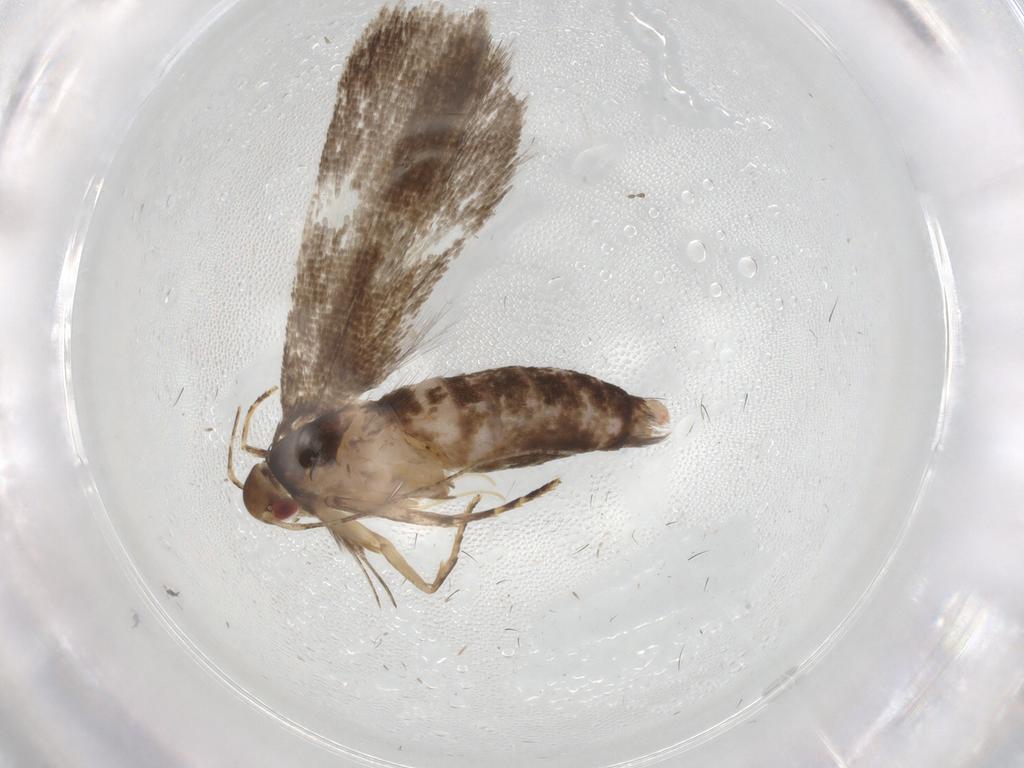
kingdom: Animalia
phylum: Arthropoda
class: Insecta
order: Lepidoptera
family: Gelechiidae
